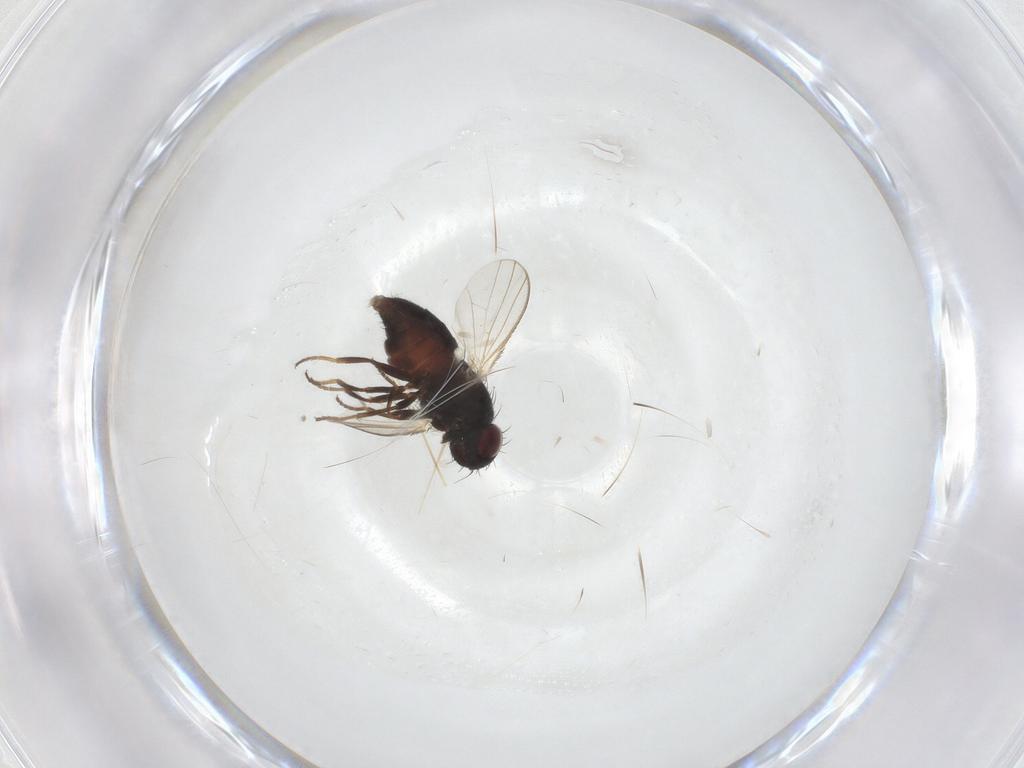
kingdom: Animalia
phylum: Arthropoda
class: Insecta
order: Diptera
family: Carnidae
